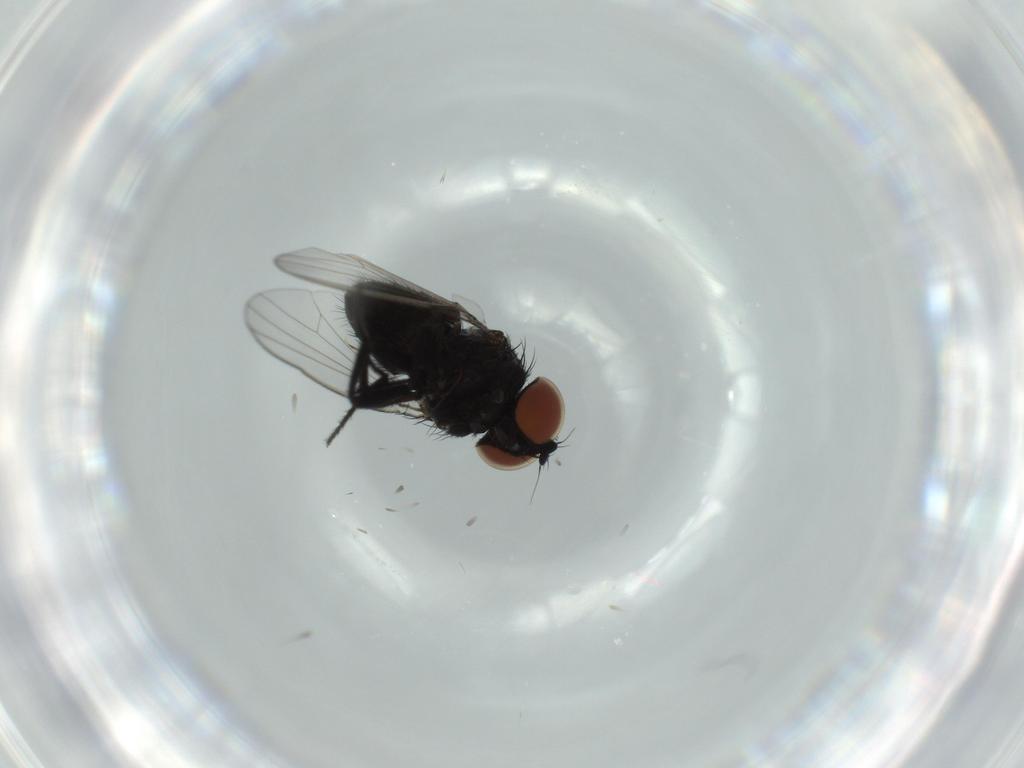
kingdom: Animalia
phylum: Arthropoda
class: Insecta
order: Diptera
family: Milichiidae
